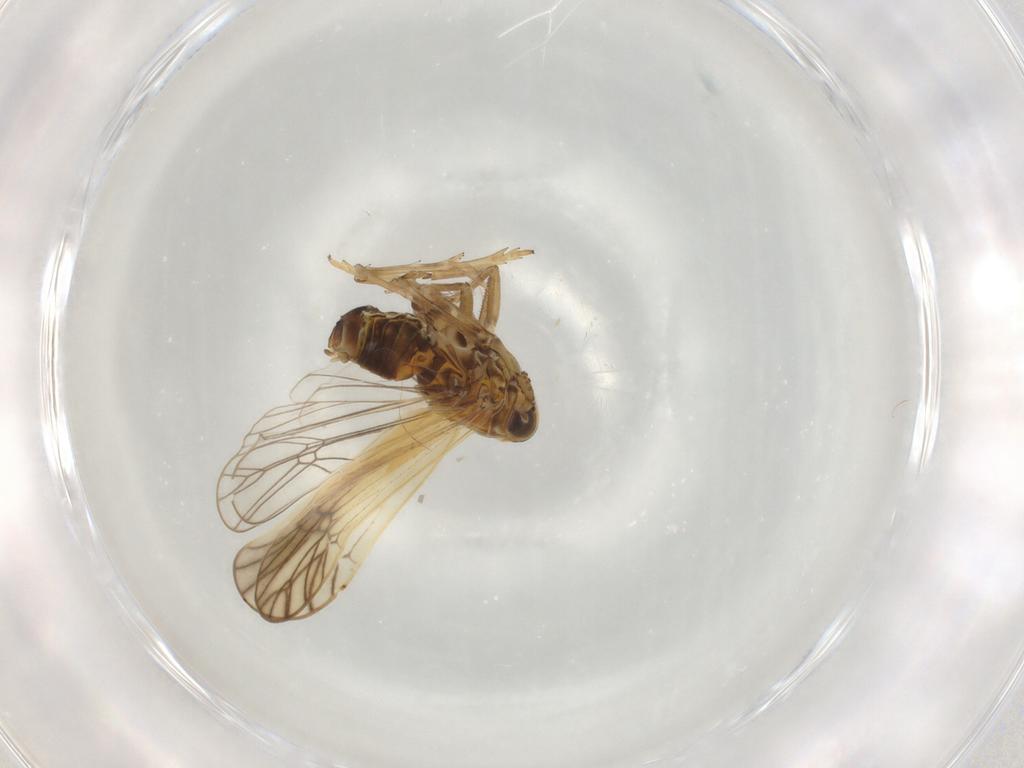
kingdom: Animalia
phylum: Arthropoda
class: Insecta
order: Hemiptera
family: Delphacidae
